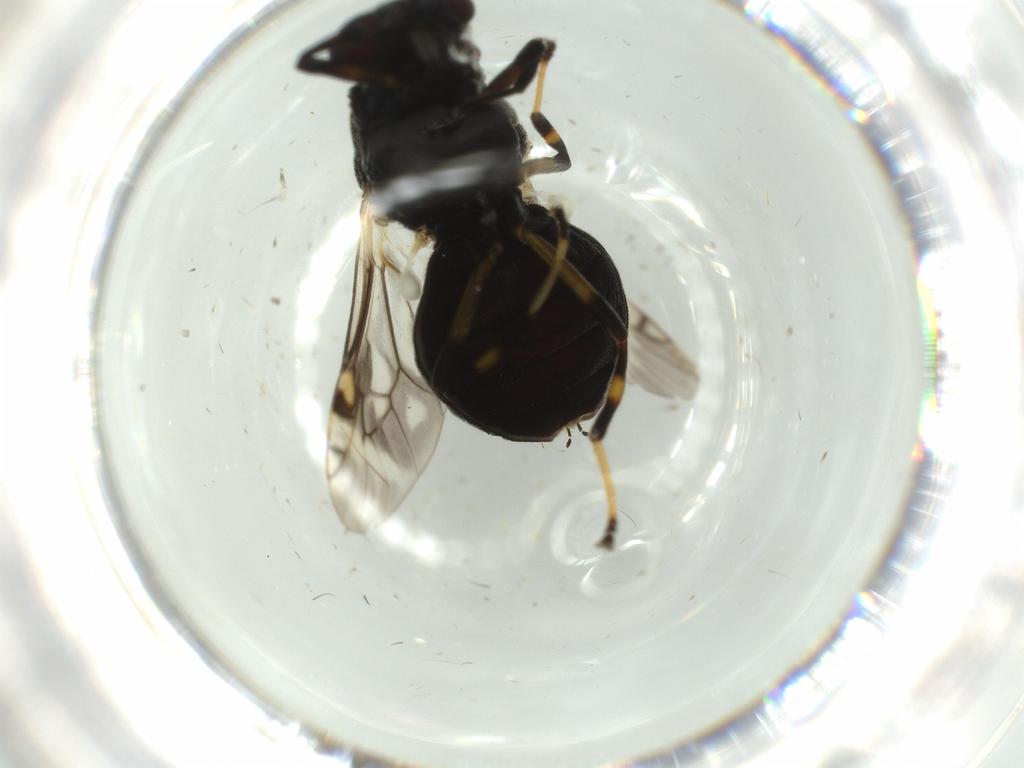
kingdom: Animalia
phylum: Arthropoda
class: Insecta
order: Diptera
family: Stratiomyidae
